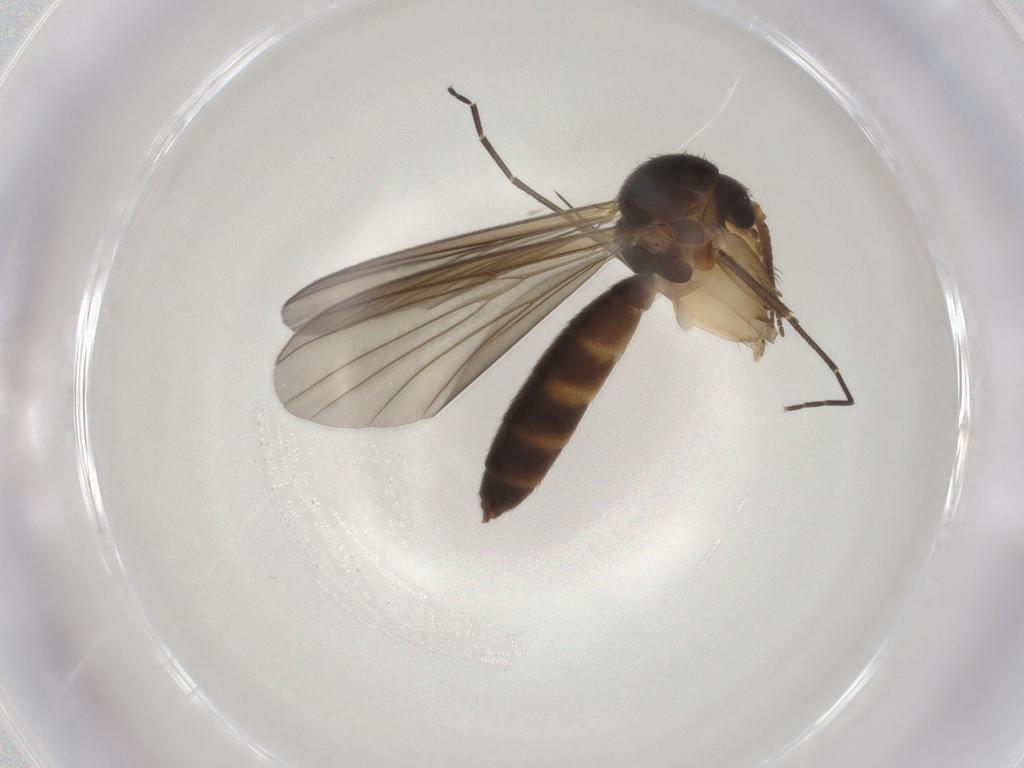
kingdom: Animalia
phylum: Arthropoda
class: Insecta
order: Diptera
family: Mycetophilidae
